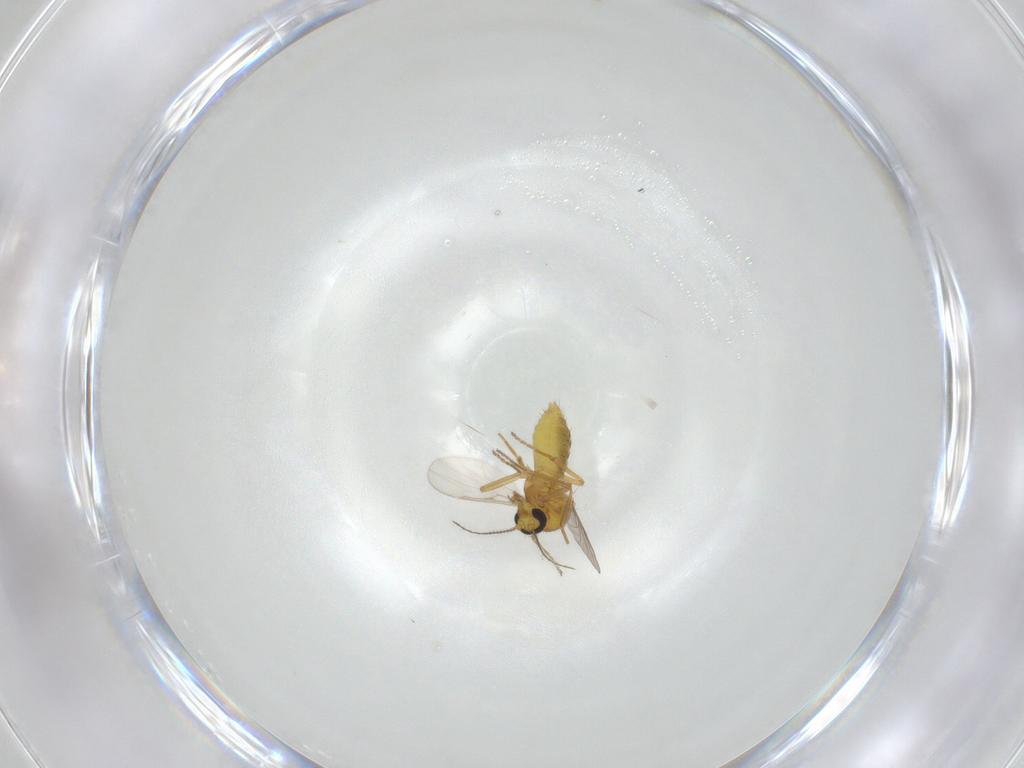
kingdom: Animalia
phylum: Arthropoda
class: Insecta
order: Diptera
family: Ceratopogonidae
